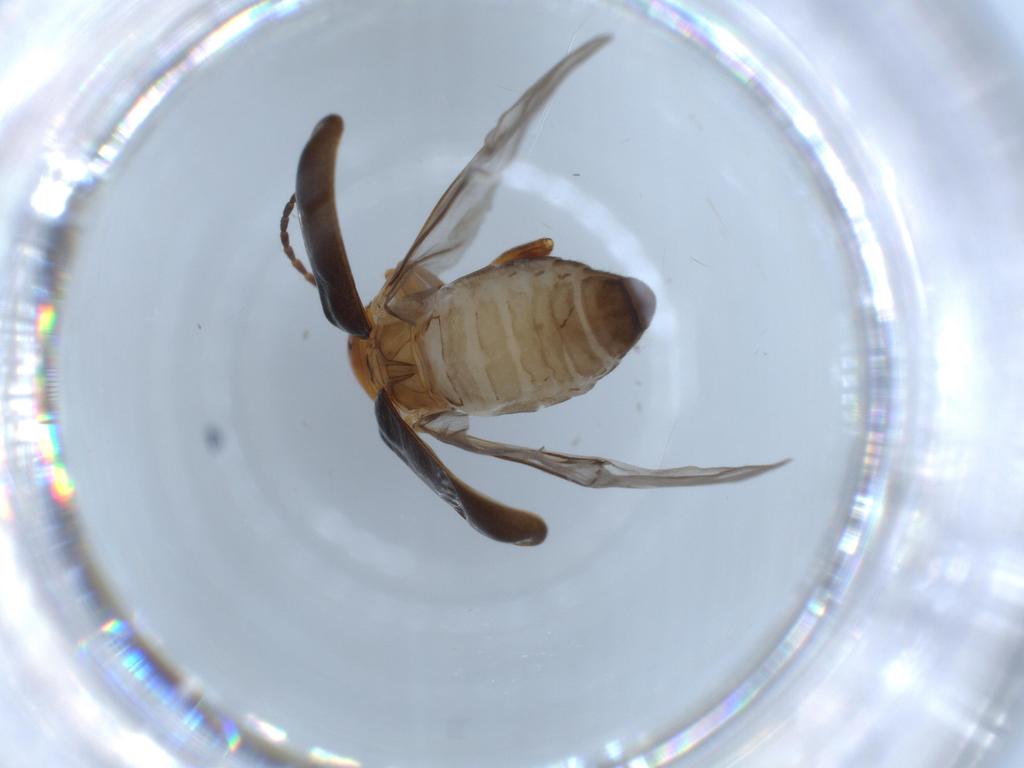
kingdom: Animalia
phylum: Arthropoda
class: Insecta
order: Coleoptera
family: Chrysomelidae
